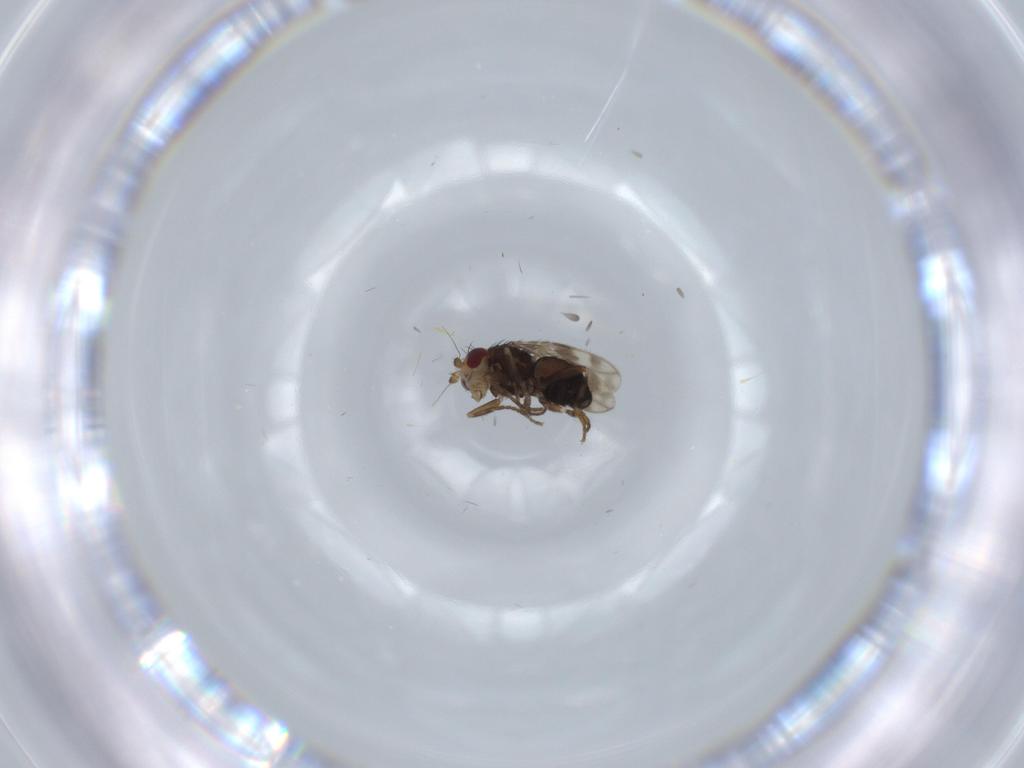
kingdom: Animalia
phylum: Arthropoda
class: Insecta
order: Diptera
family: Sphaeroceridae
